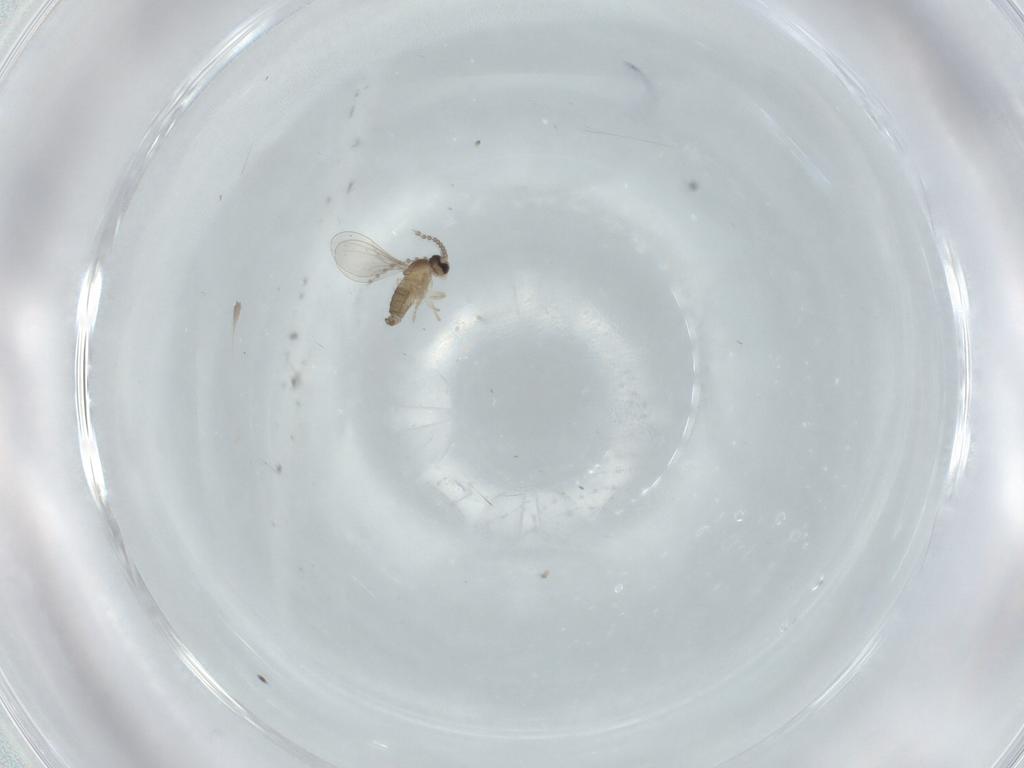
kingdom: Animalia
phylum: Arthropoda
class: Insecta
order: Diptera
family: Cecidomyiidae
